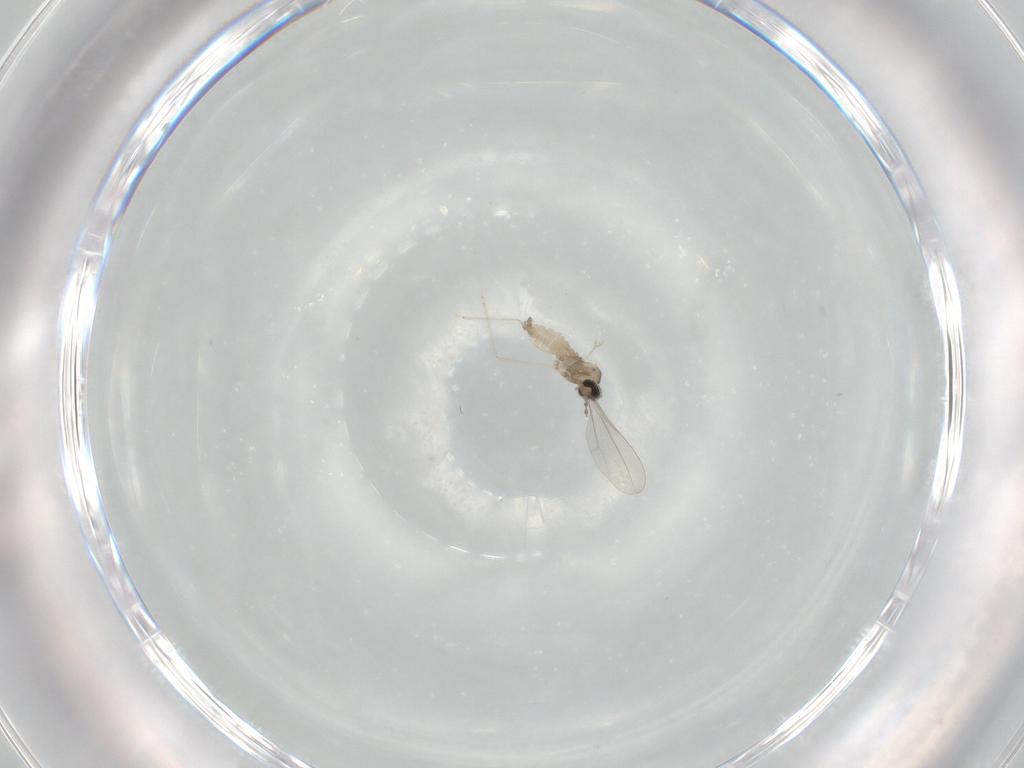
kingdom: Animalia
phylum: Arthropoda
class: Insecta
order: Diptera
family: Cecidomyiidae
